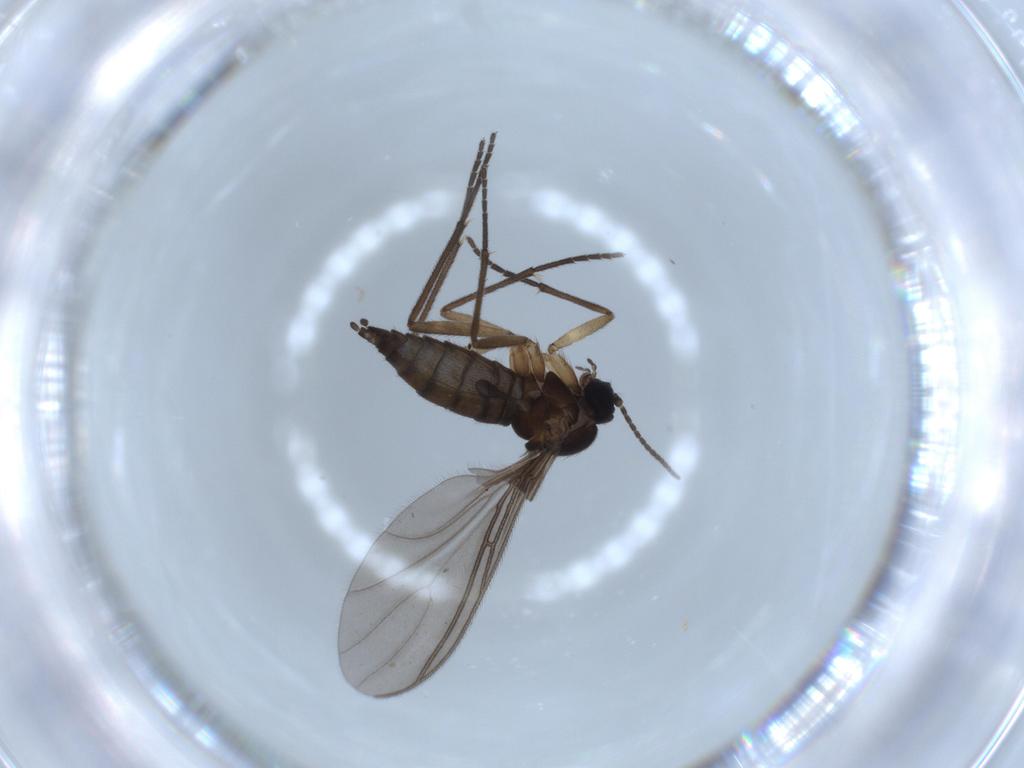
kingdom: Animalia
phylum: Arthropoda
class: Insecta
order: Diptera
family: Sciaridae
